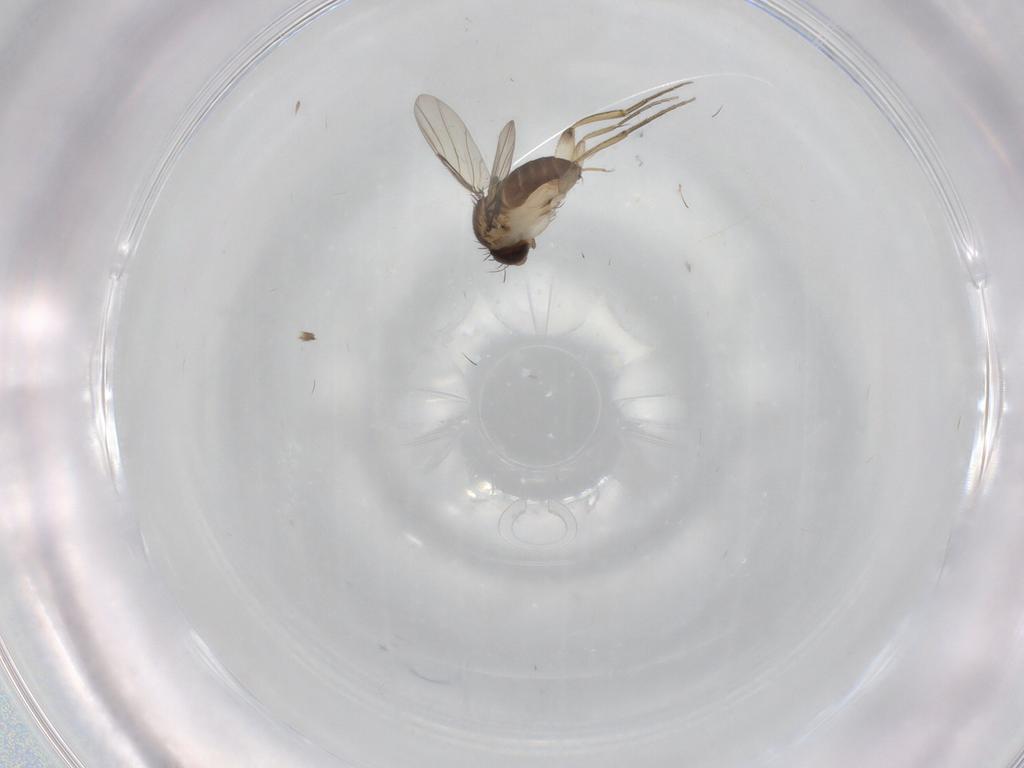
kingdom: Animalia
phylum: Arthropoda
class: Insecta
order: Diptera
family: Phoridae
